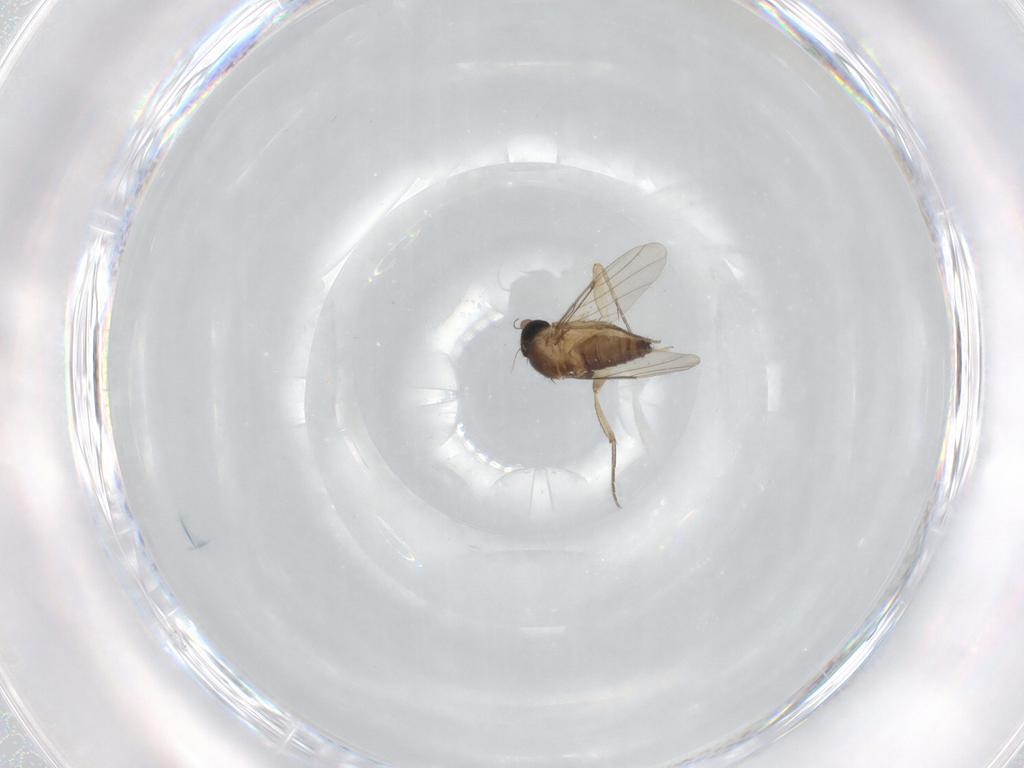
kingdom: Animalia
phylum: Arthropoda
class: Insecta
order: Diptera
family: Phoridae
